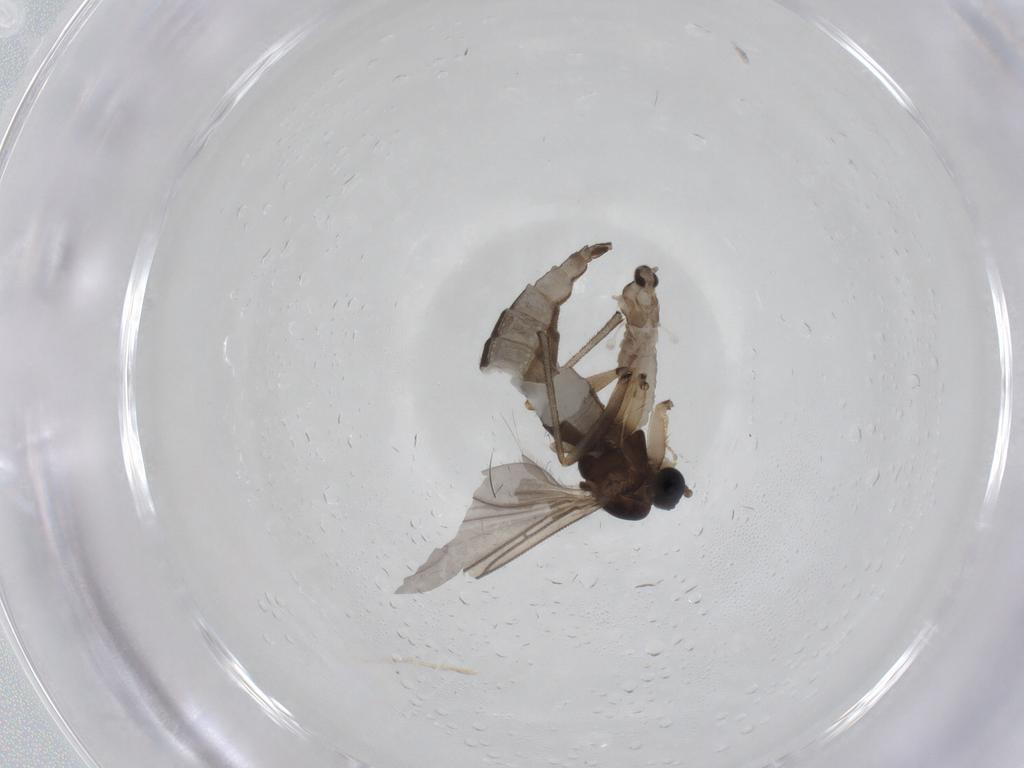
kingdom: Animalia
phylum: Arthropoda
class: Insecta
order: Diptera
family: Sciaridae
